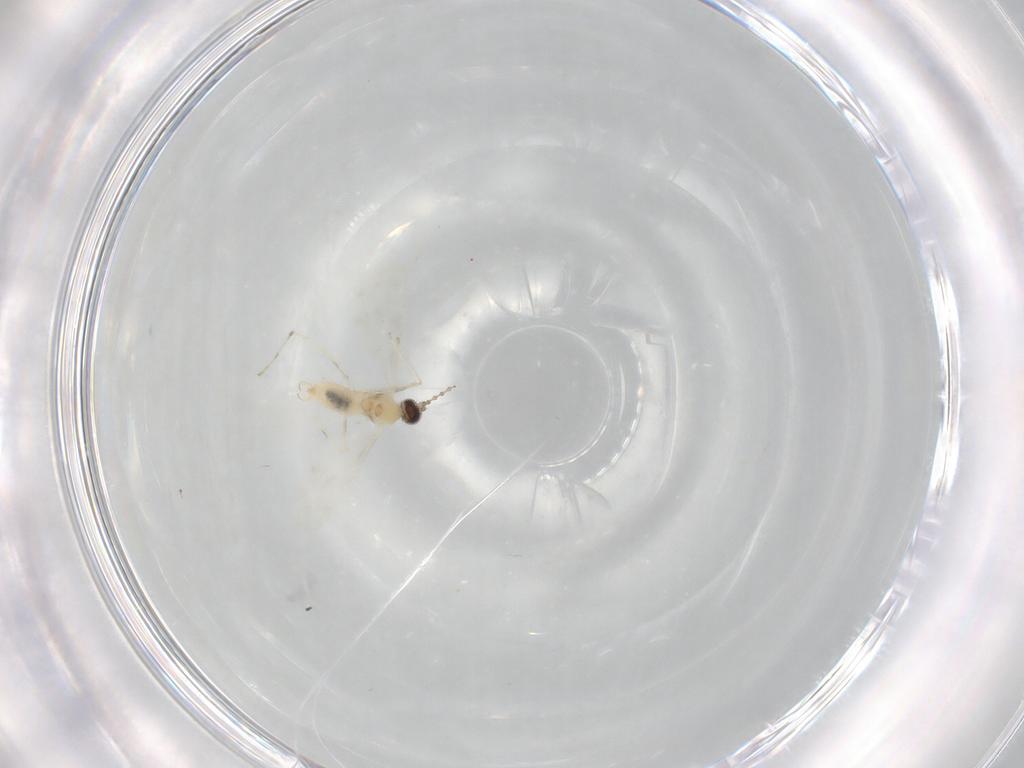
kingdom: Animalia
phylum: Arthropoda
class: Insecta
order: Diptera
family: Cecidomyiidae
